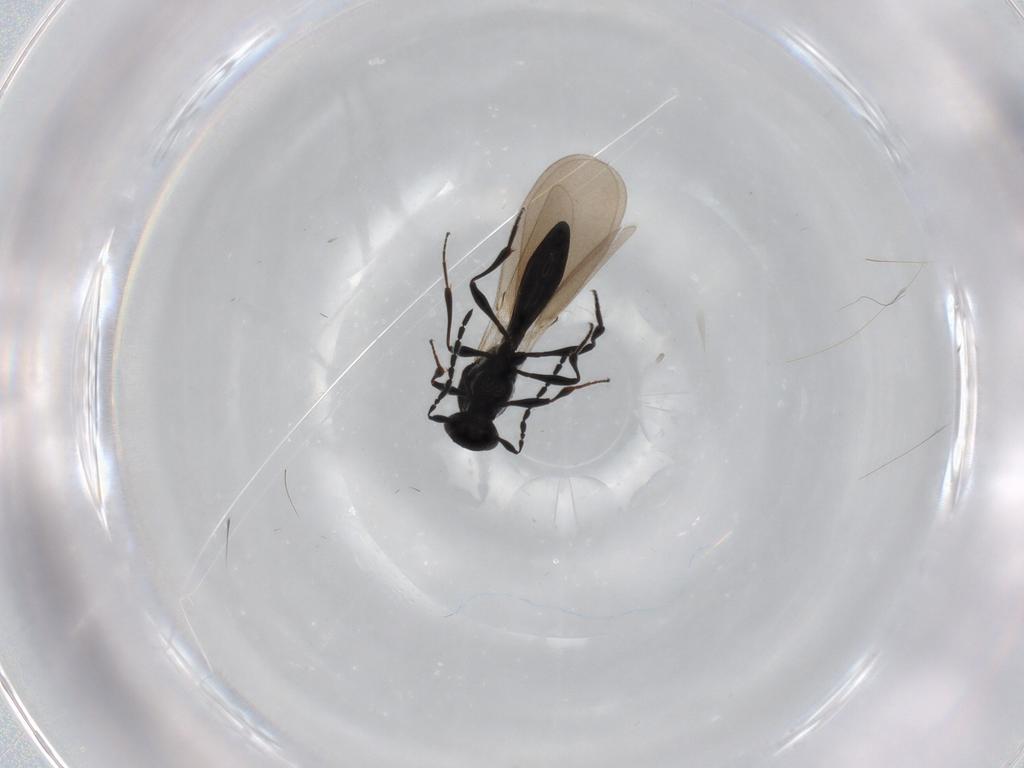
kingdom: Animalia
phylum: Arthropoda
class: Insecta
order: Hymenoptera
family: Platygastridae
